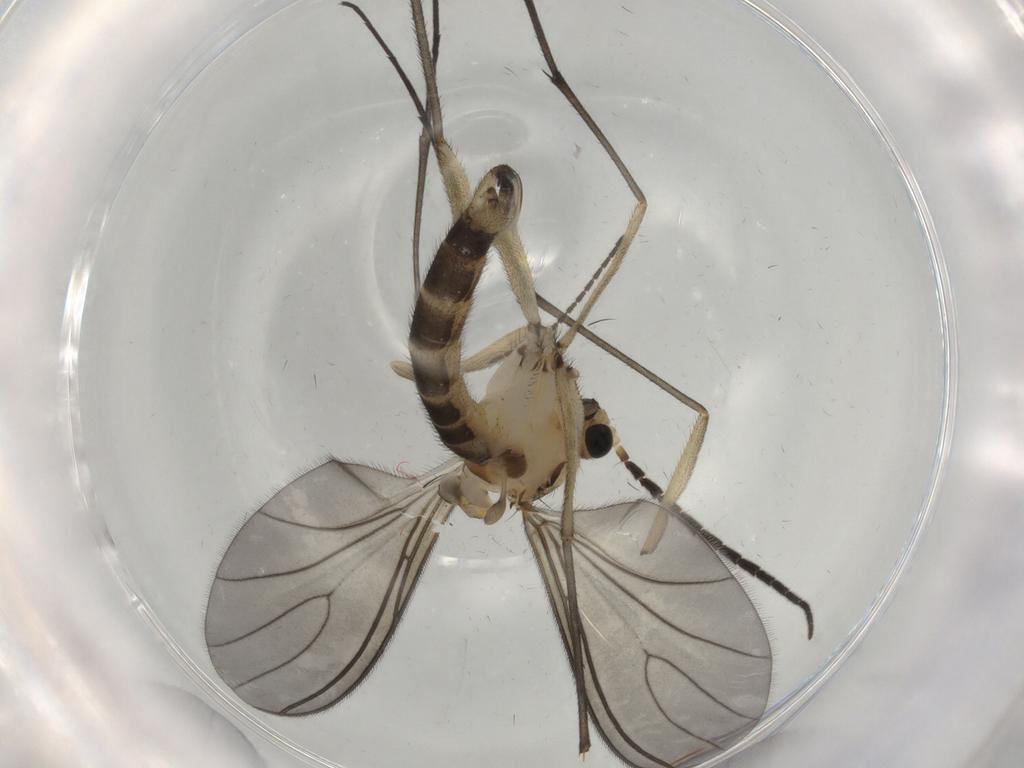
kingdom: Animalia
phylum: Arthropoda
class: Insecta
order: Diptera
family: Sciaridae
